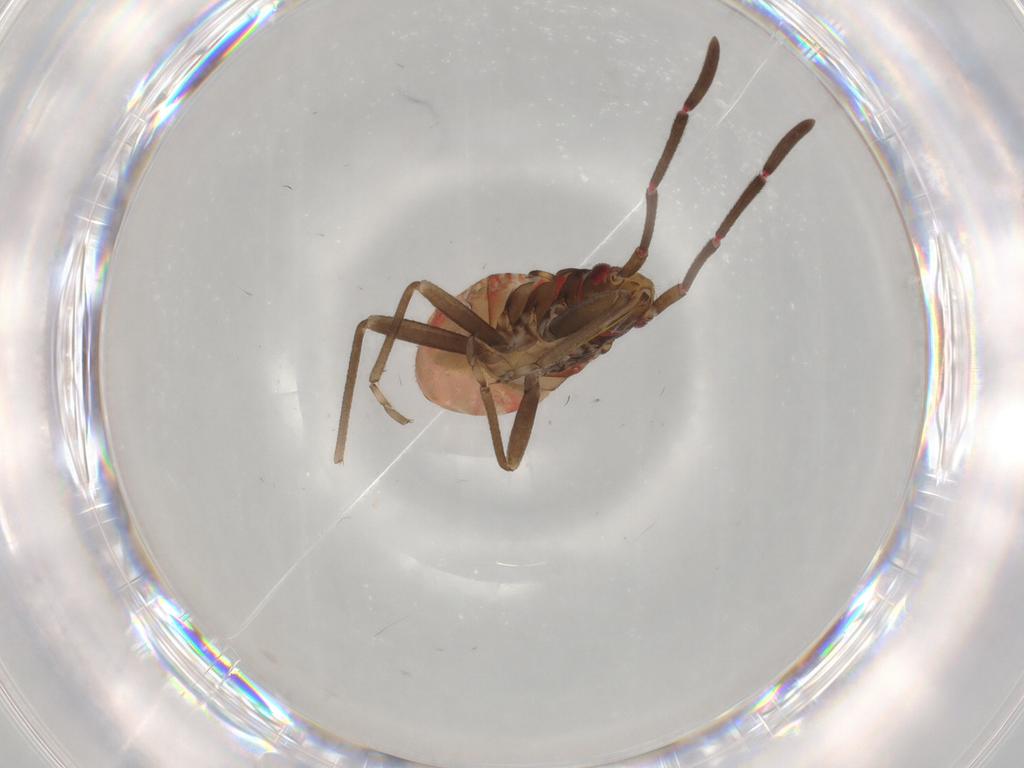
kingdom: Animalia
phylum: Arthropoda
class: Insecta
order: Hemiptera
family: Rhyparochromidae
